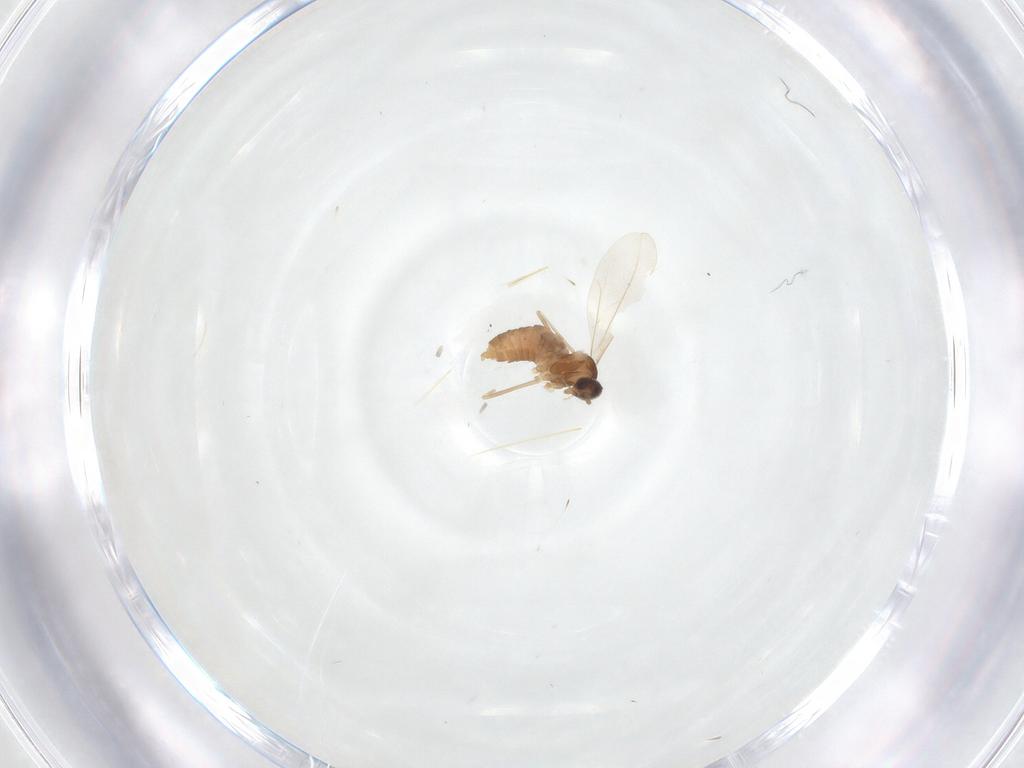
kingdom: Animalia
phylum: Arthropoda
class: Insecta
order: Diptera
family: Cecidomyiidae
